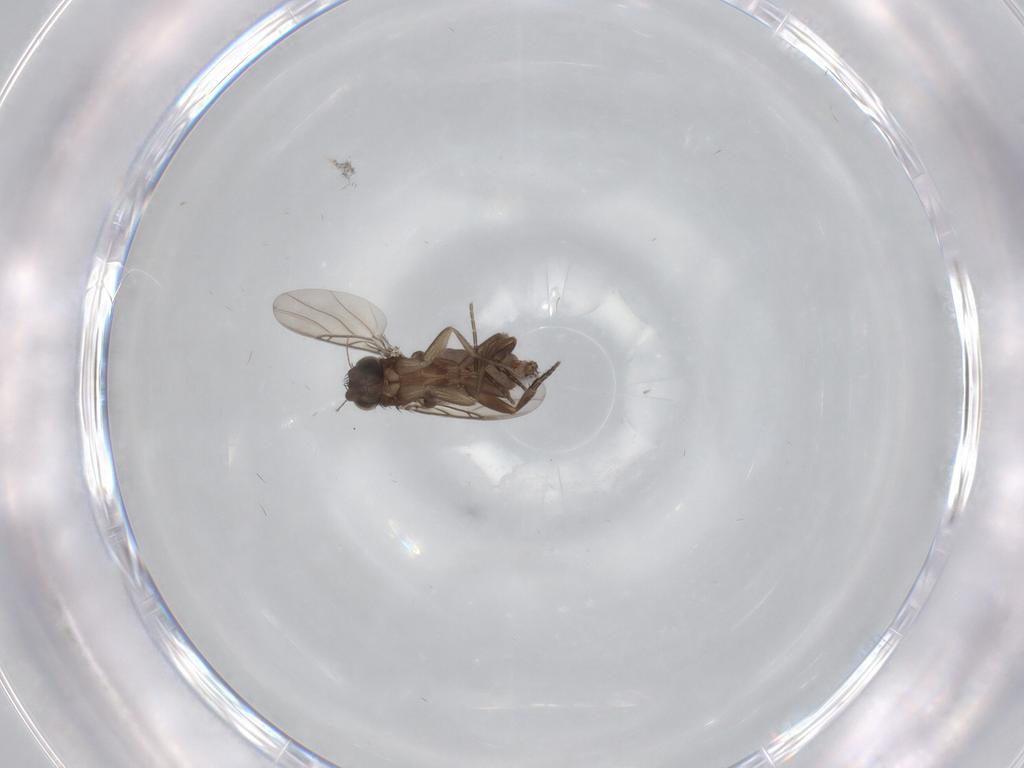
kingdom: Animalia
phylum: Arthropoda
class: Insecta
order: Diptera
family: Phoridae
